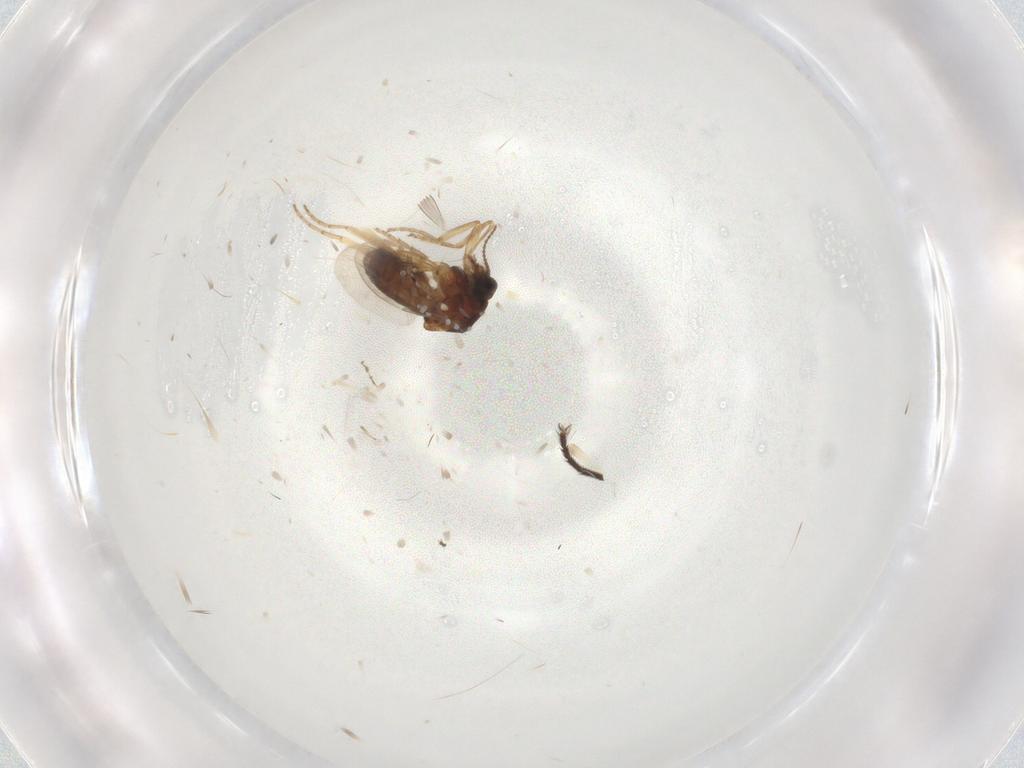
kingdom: Animalia
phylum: Arthropoda
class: Insecta
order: Diptera
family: Ceratopogonidae
